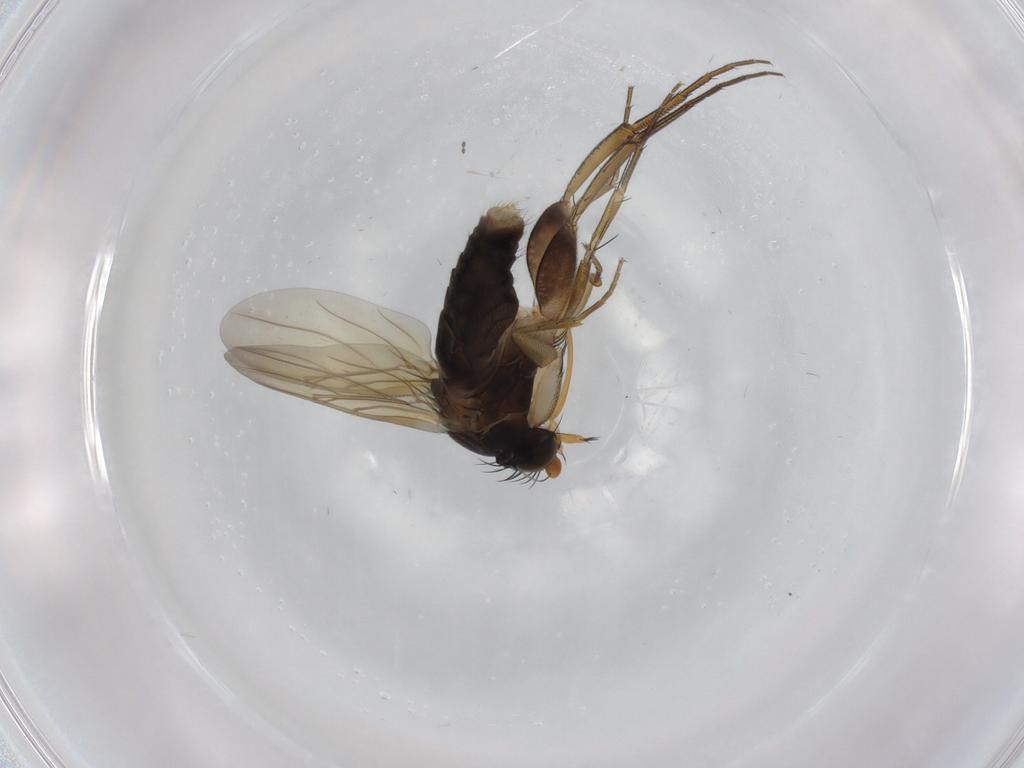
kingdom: Animalia
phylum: Arthropoda
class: Insecta
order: Diptera
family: Phoridae
